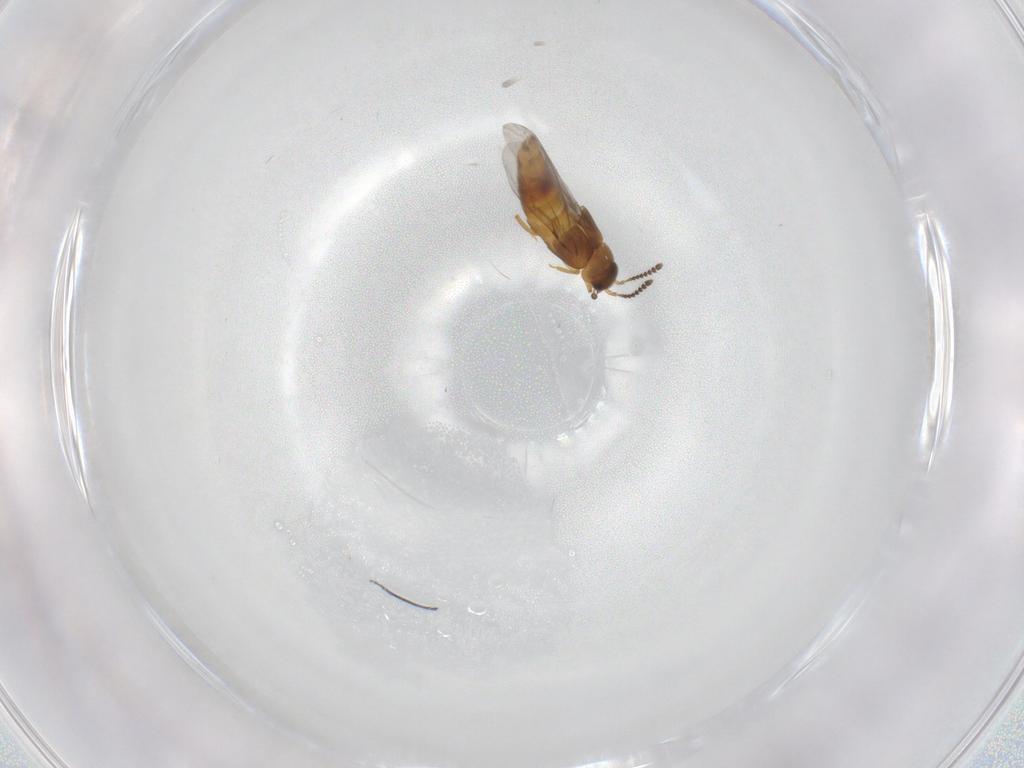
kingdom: Animalia
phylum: Arthropoda
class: Insecta
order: Coleoptera
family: Staphylinidae
